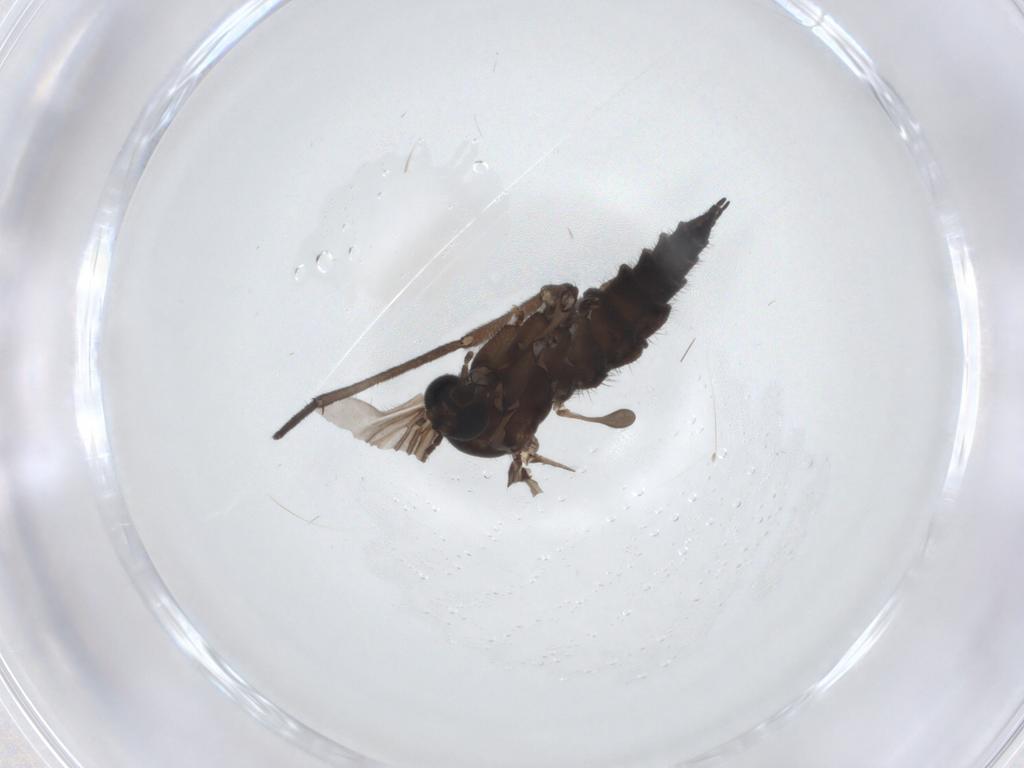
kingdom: Animalia
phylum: Arthropoda
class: Insecta
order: Diptera
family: Sciaridae
